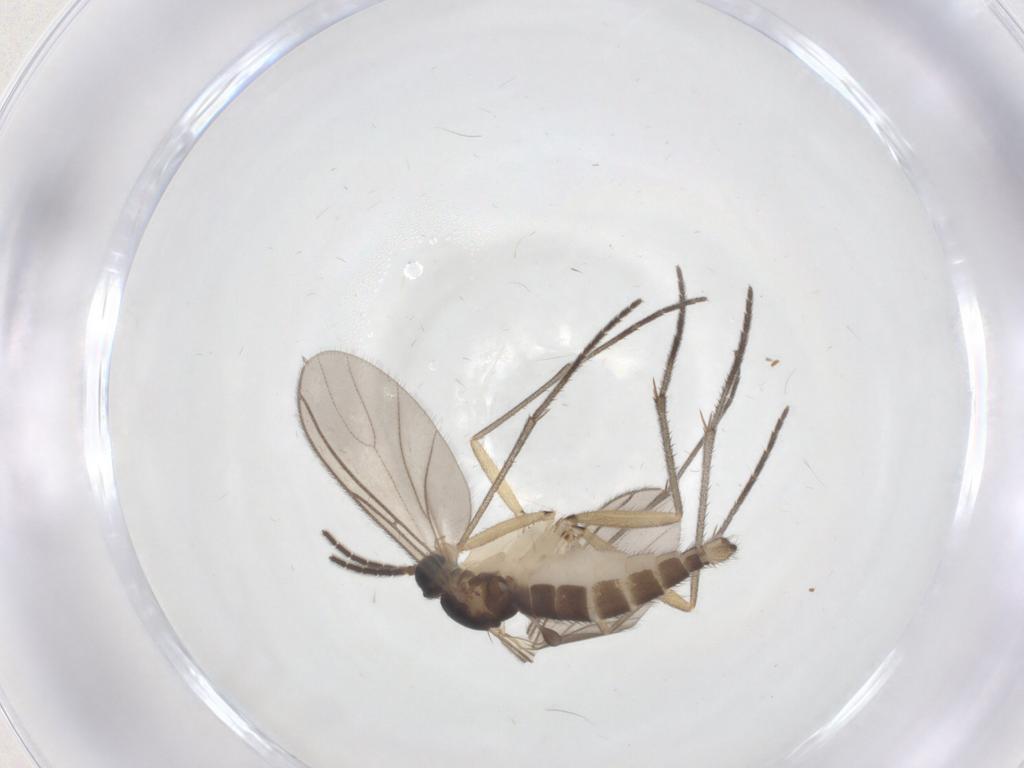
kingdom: Animalia
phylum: Arthropoda
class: Insecta
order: Diptera
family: Sciaridae
